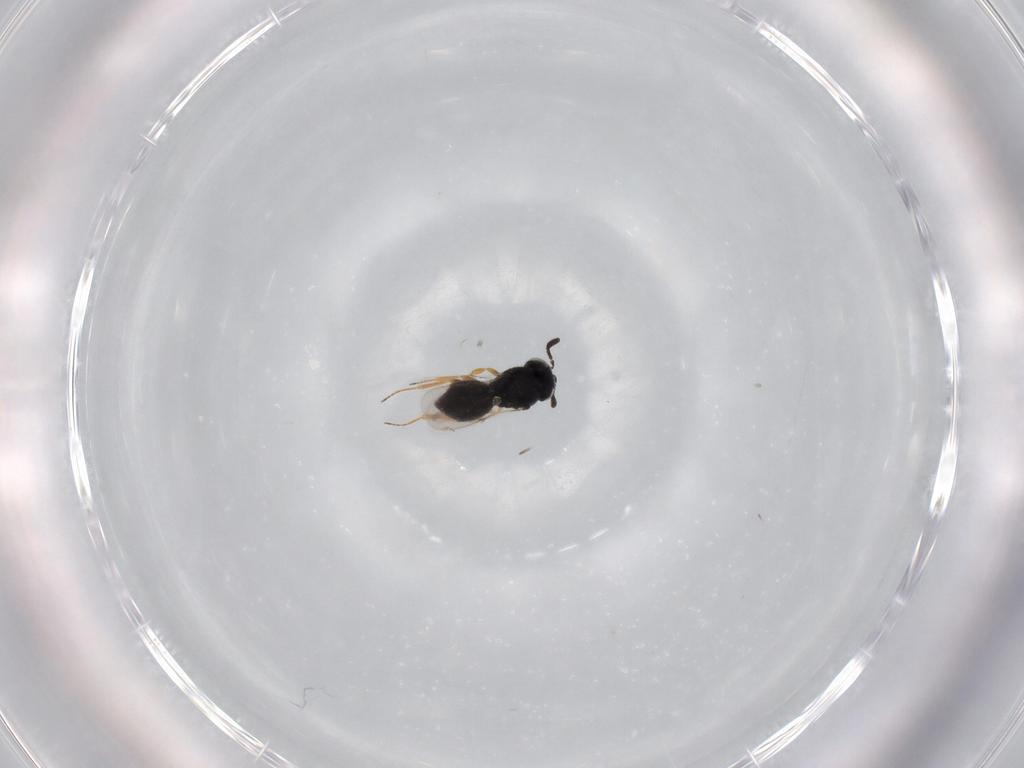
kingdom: Animalia
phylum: Arthropoda
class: Insecta
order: Hymenoptera
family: Scelionidae
